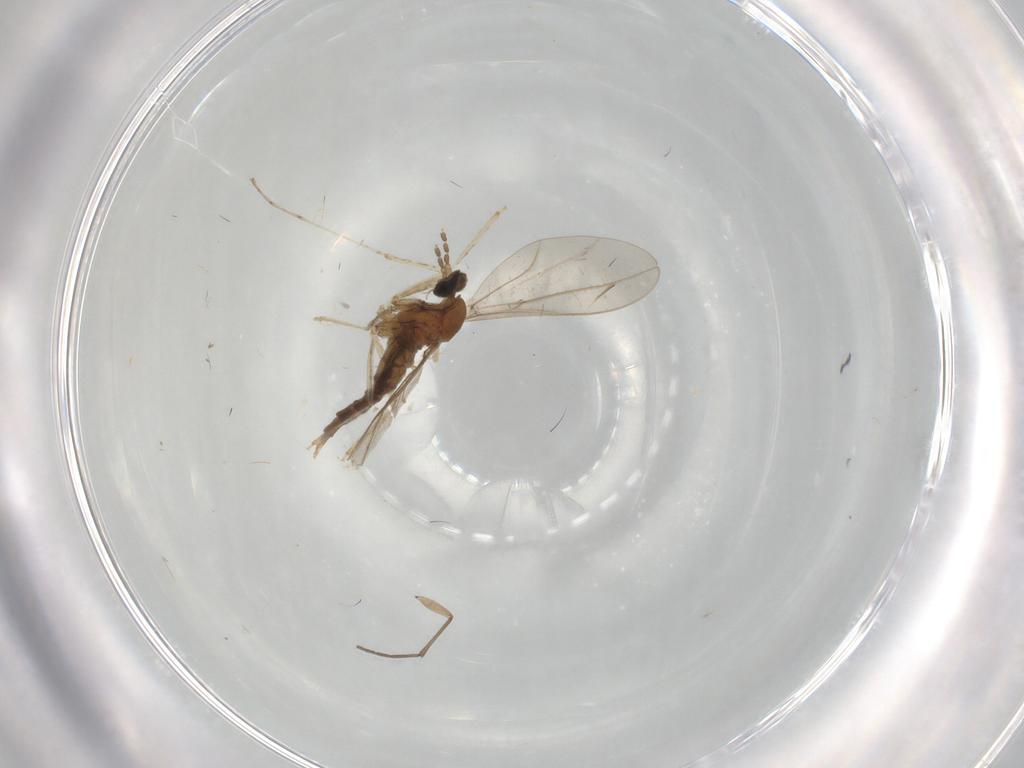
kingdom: Animalia
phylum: Arthropoda
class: Insecta
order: Diptera
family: Cecidomyiidae
